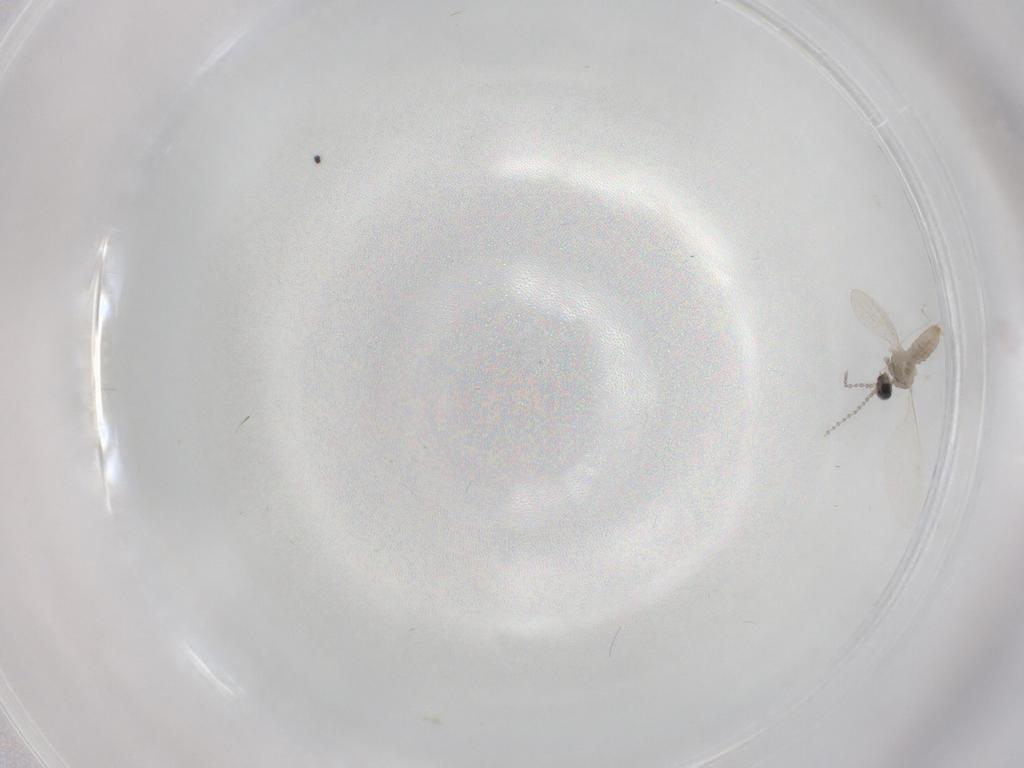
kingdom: Animalia
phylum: Arthropoda
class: Insecta
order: Diptera
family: Cecidomyiidae
